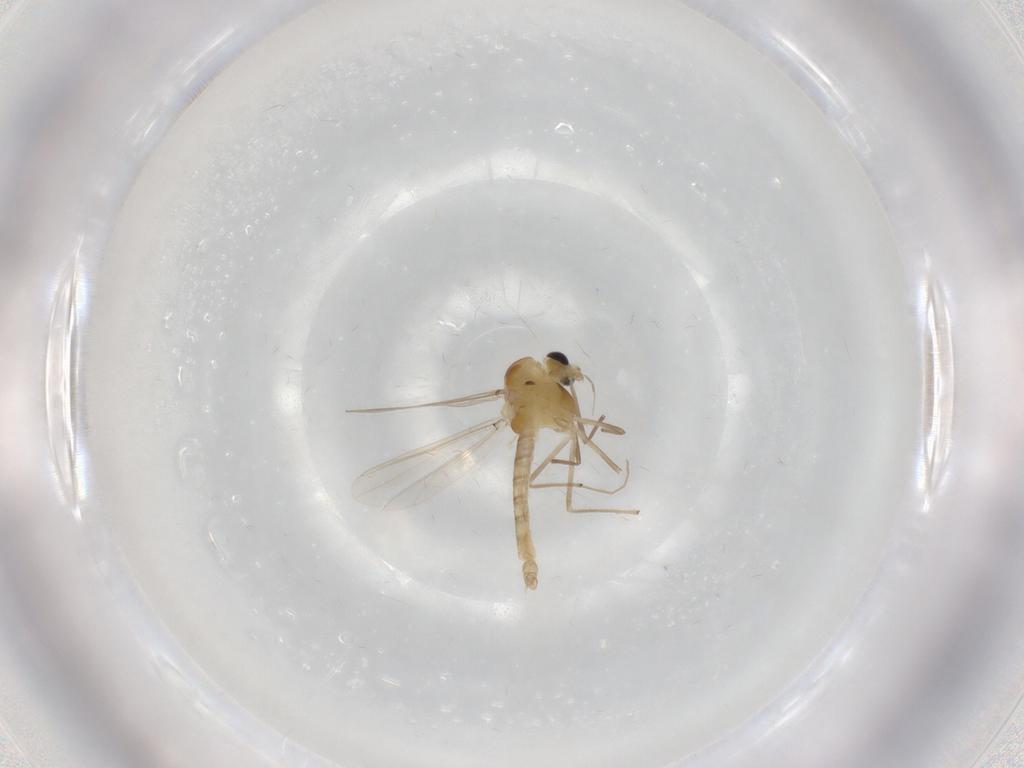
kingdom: Animalia
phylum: Arthropoda
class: Insecta
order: Diptera
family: Chironomidae
